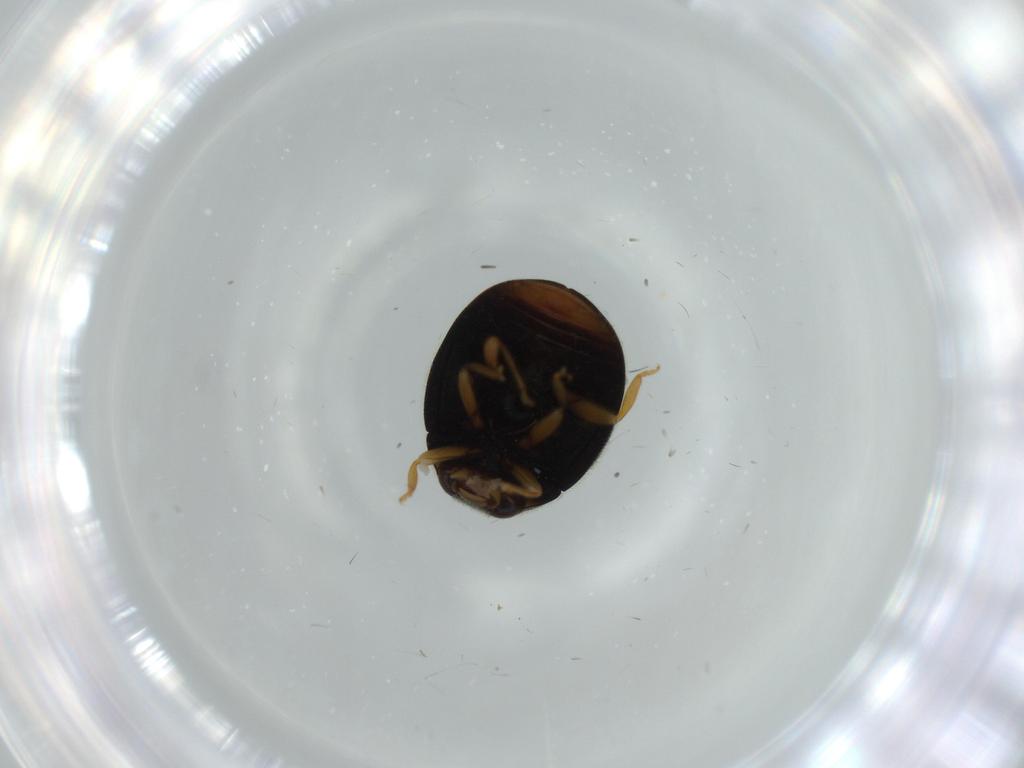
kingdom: Animalia
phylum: Arthropoda
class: Insecta
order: Coleoptera
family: Coccinellidae
